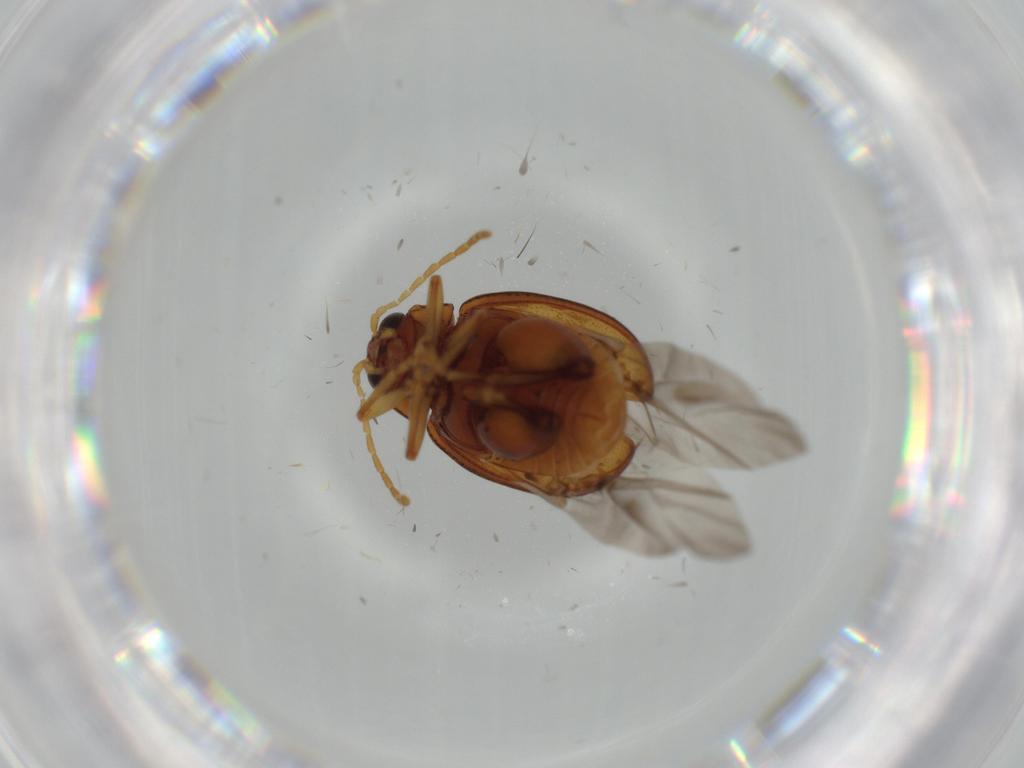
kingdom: Animalia
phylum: Arthropoda
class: Insecta
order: Coleoptera
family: Chrysomelidae
